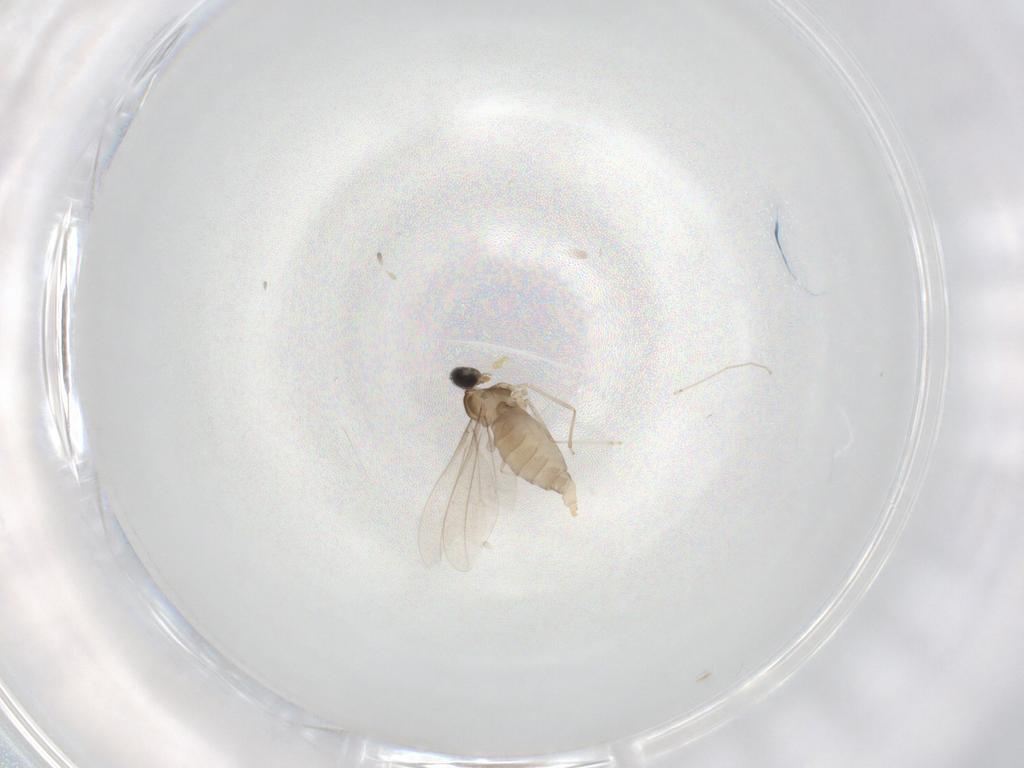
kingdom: Animalia
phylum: Arthropoda
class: Insecta
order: Diptera
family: Cecidomyiidae
